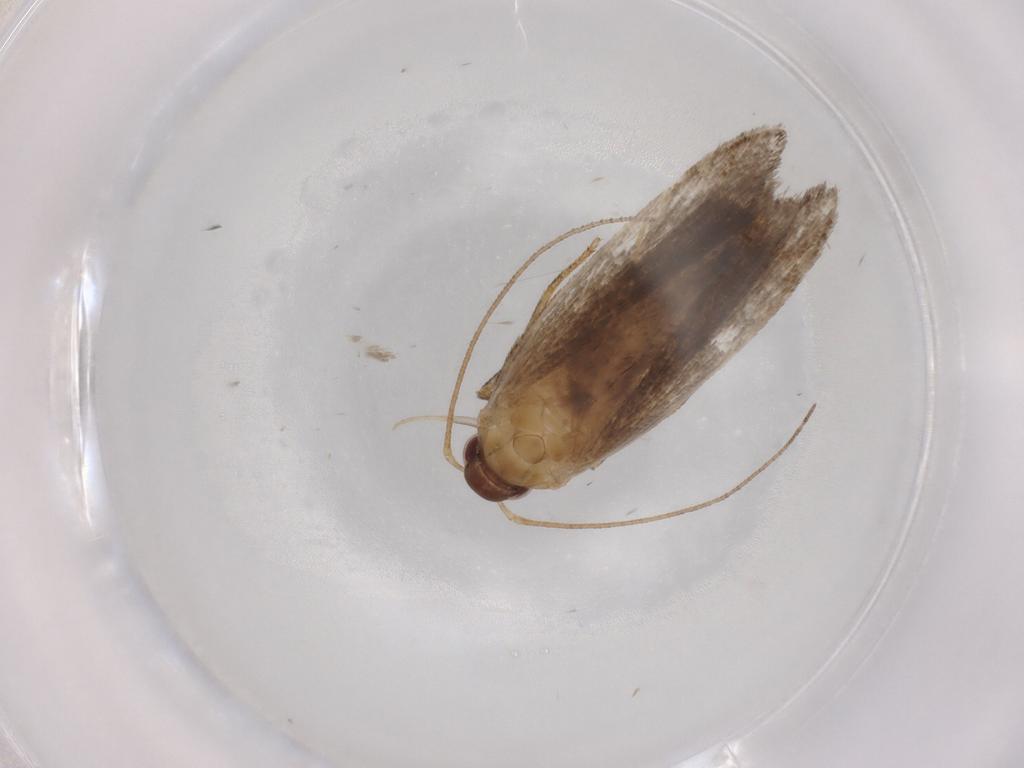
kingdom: Animalia
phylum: Arthropoda
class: Insecta
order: Lepidoptera
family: Gelechiidae
